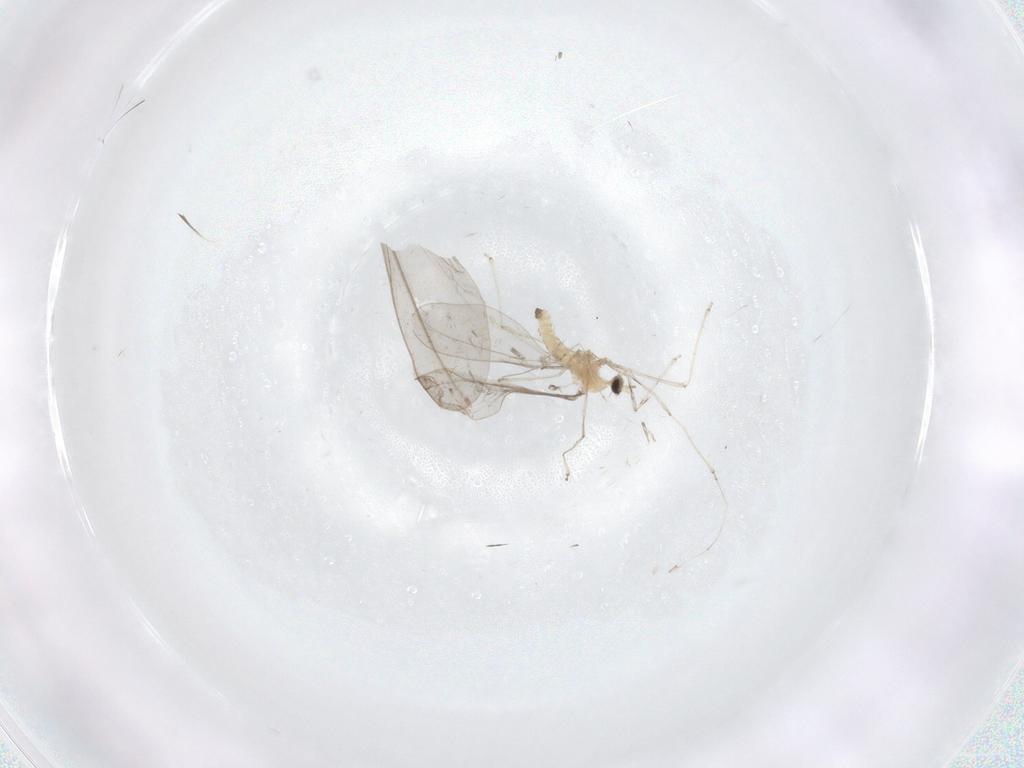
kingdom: Animalia
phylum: Arthropoda
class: Insecta
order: Diptera
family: Cecidomyiidae
